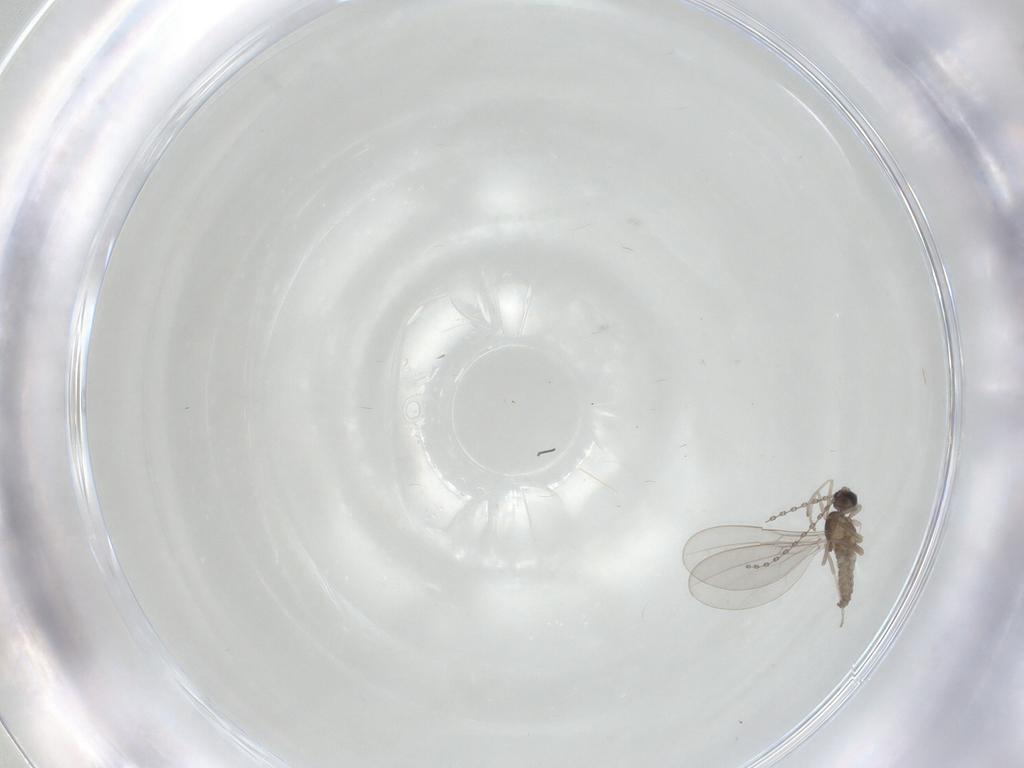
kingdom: Animalia
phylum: Arthropoda
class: Insecta
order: Diptera
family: Cecidomyiidae
